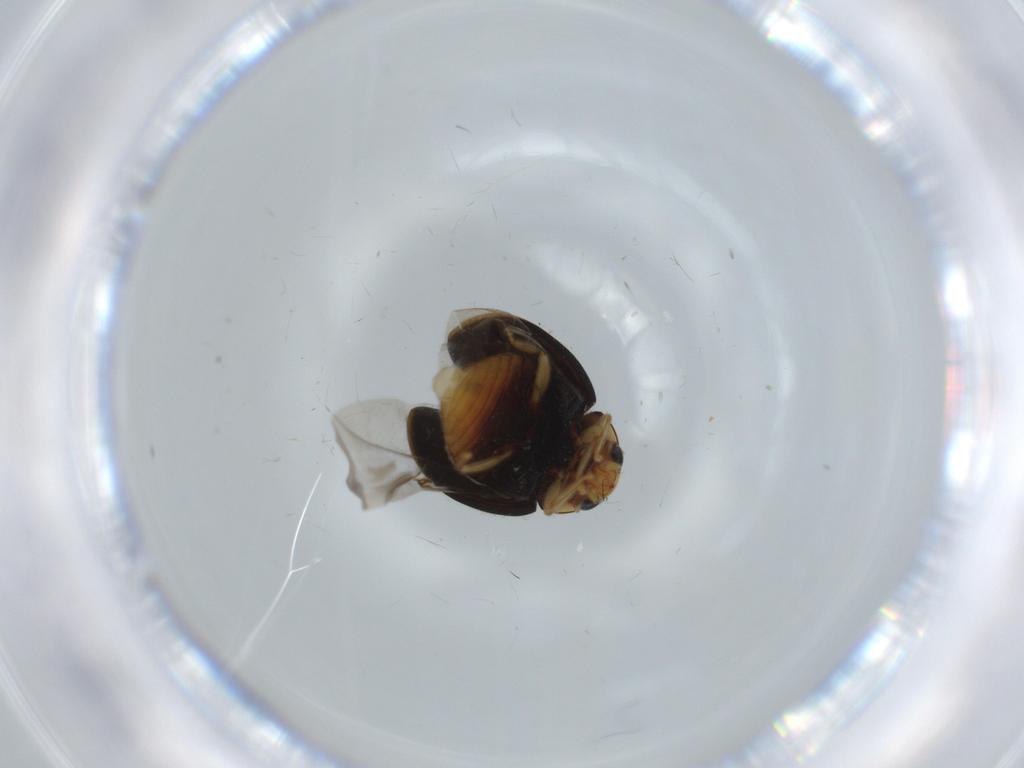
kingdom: Animalia
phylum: Arthropoda
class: Insecta
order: Coleoptera
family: Coccinellidae
